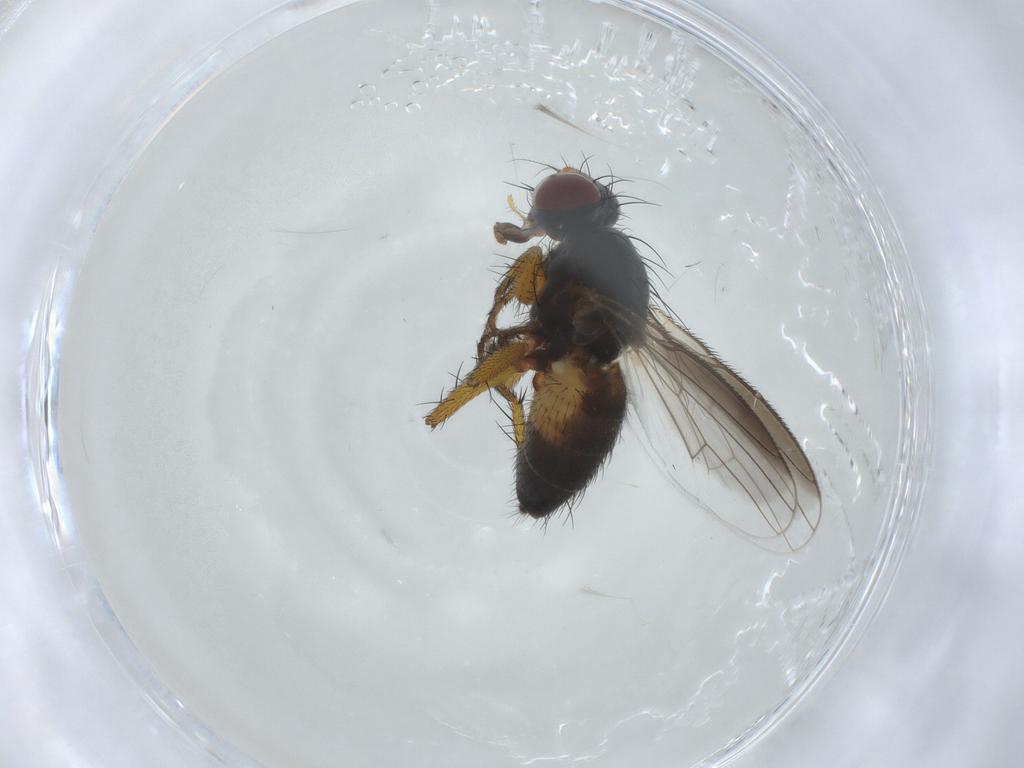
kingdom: Animalia
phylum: Arthropoda
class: Insecta
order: Diptera
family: Muscidae
